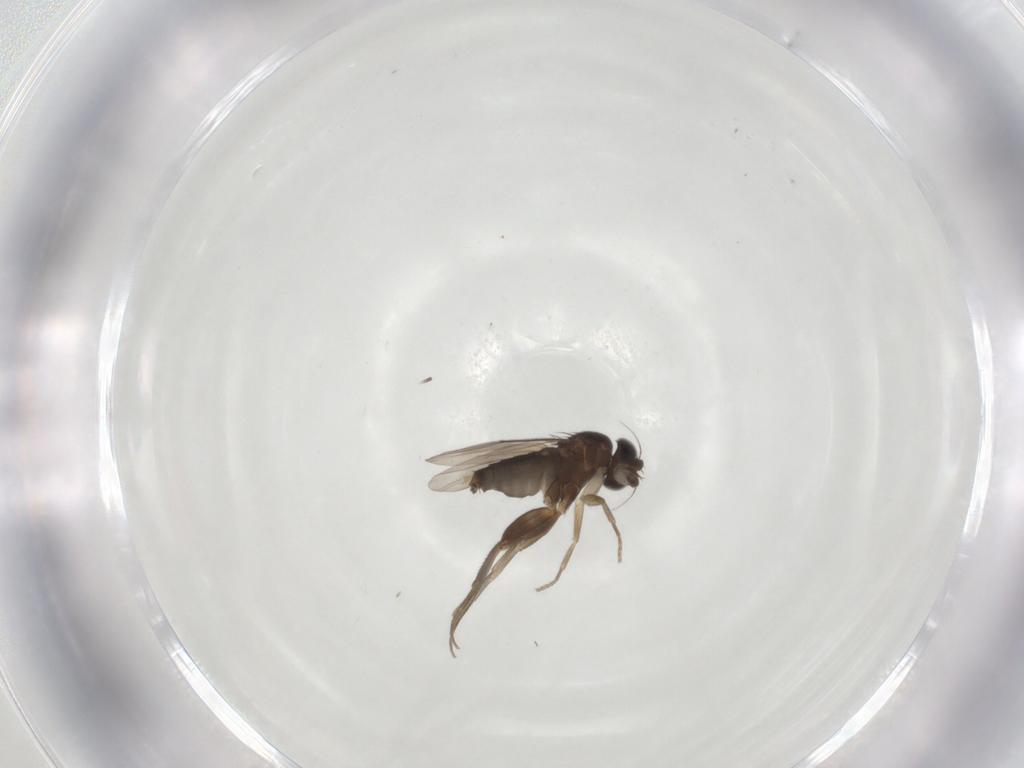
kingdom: Animalia
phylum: Arthropoda
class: Insecta
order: Diptera
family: Phoridae
